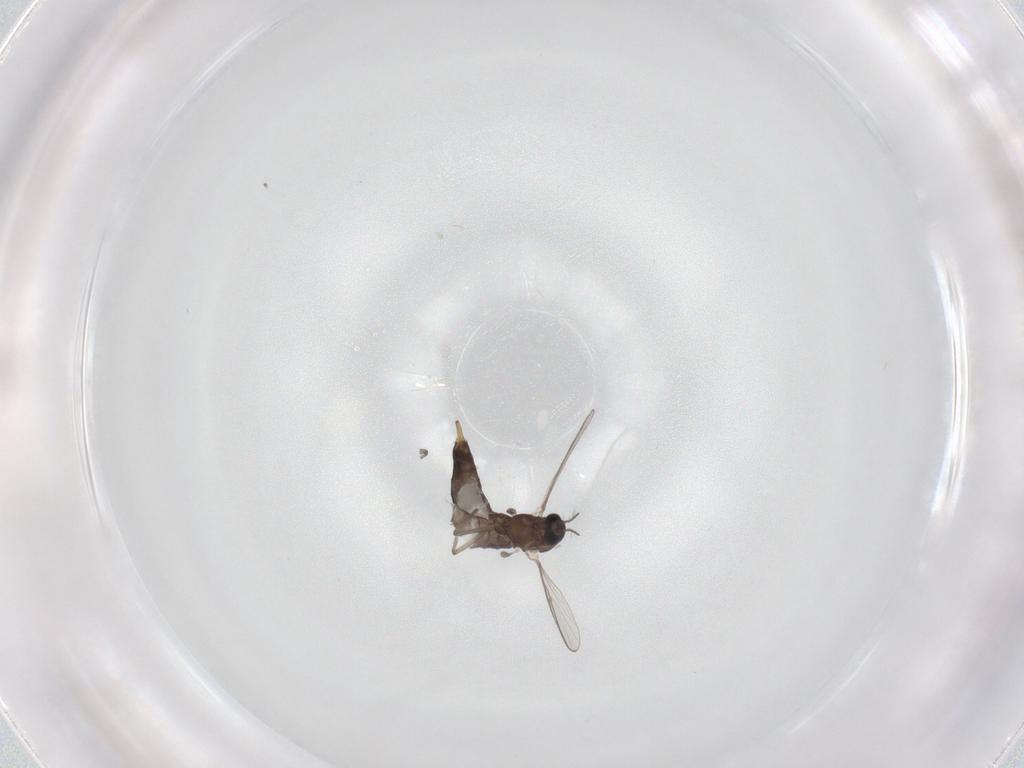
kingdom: Animalia
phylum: Arthropoda
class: Insecta
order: Diptera
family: Chironomidae
